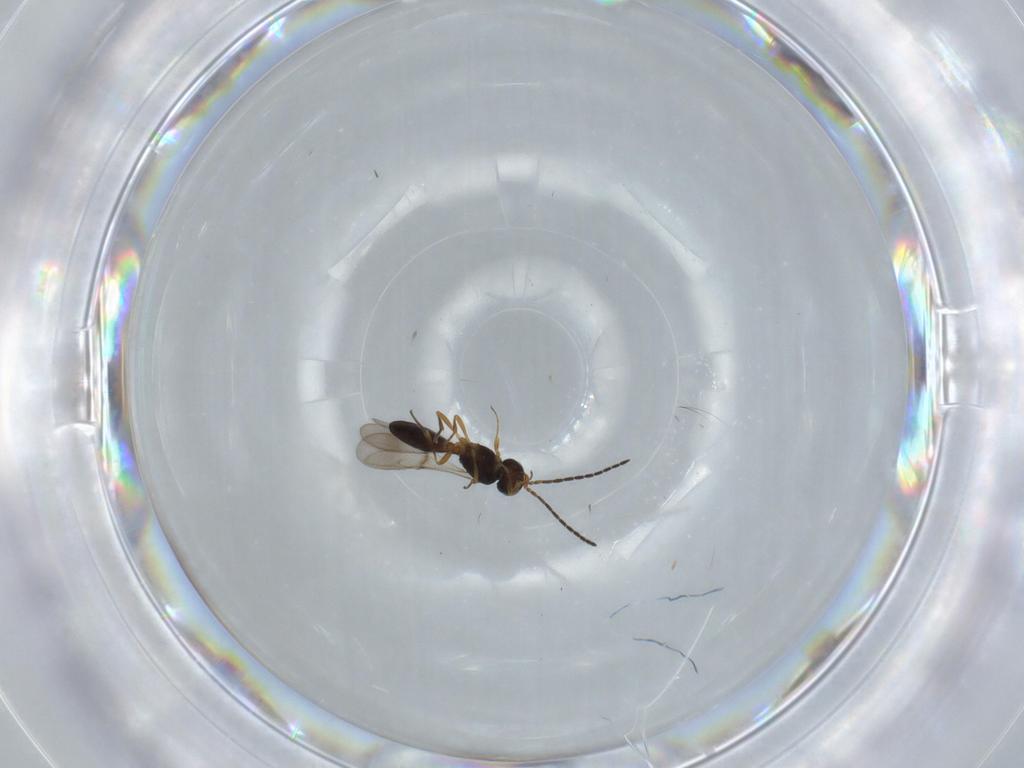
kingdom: Animalia
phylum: Arthropoda
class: Insecta
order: Hymenoptera
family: Scelionidae
